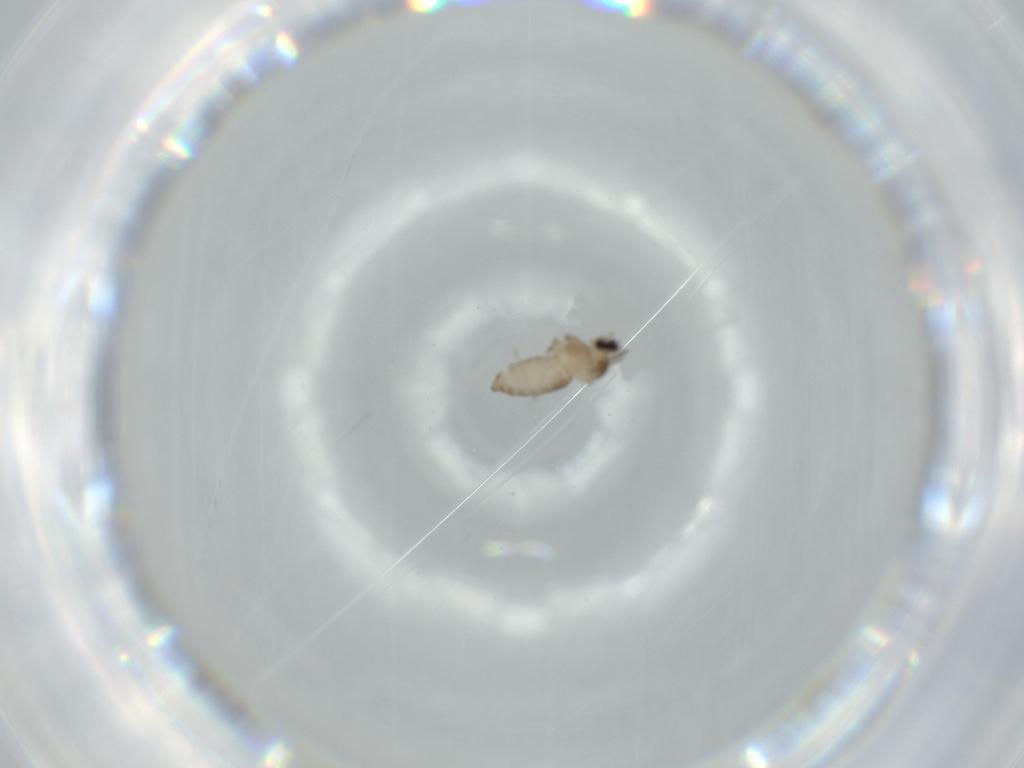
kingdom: Animalia
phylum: Arthropoda
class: Insecta
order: Diptera
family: Cecidomyiidae
